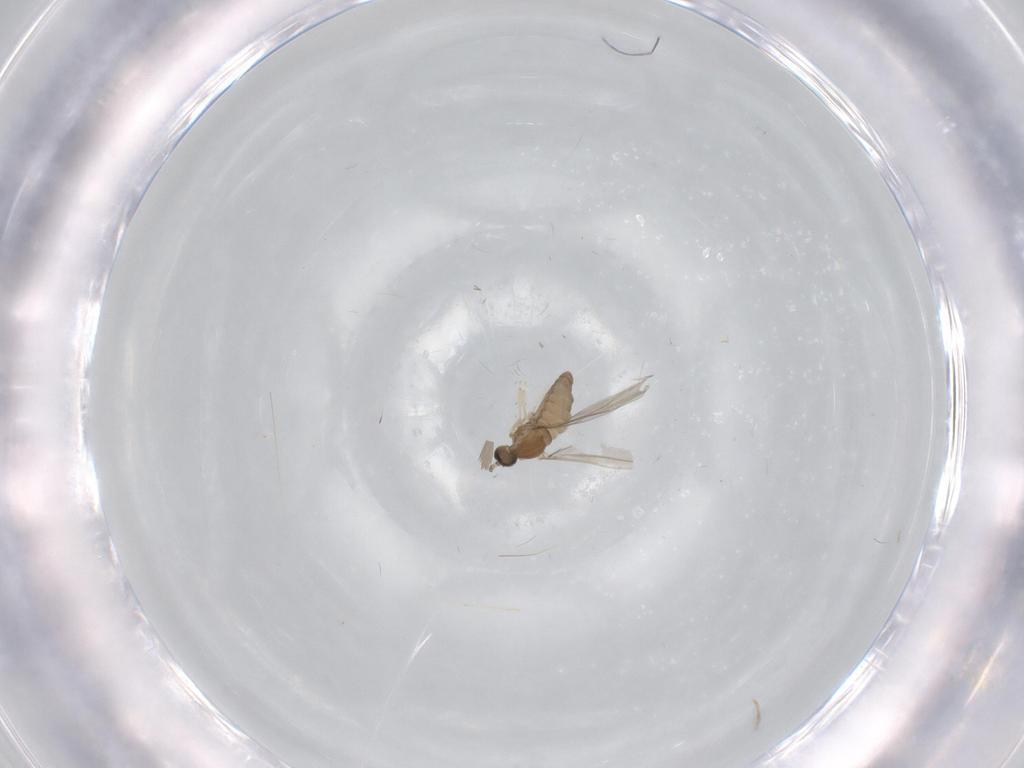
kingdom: Animalia
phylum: Arthropoda
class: Insecta
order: Diptera
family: Cecidomyiidae
